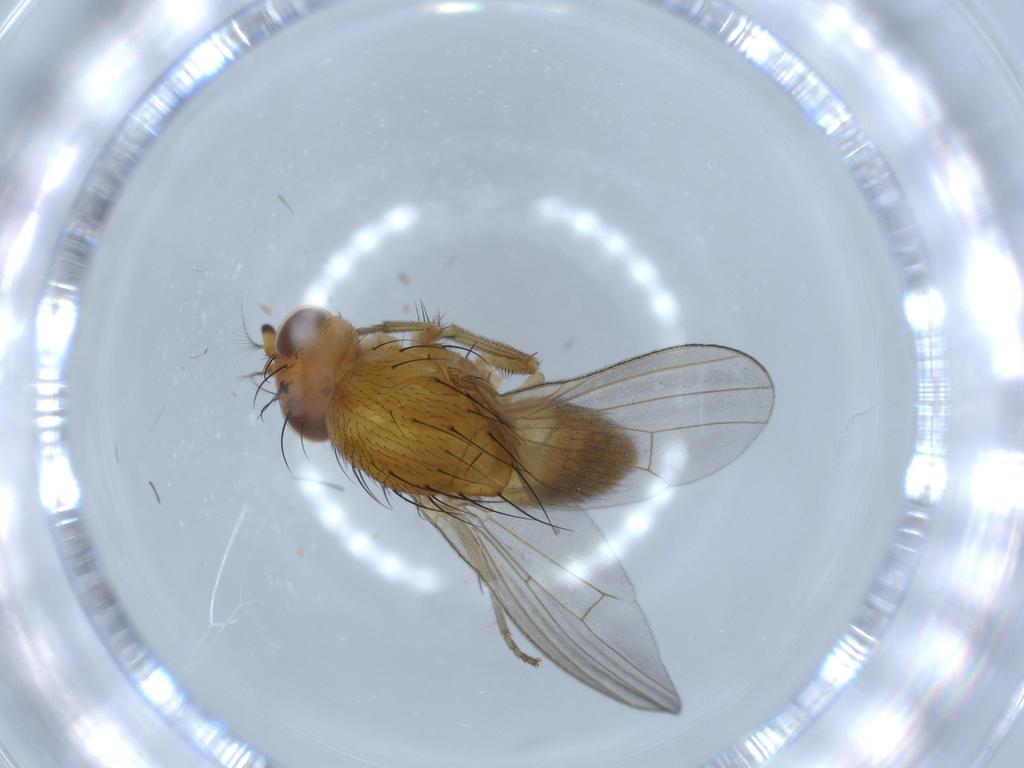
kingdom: Animalia
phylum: Arthropoda
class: Insecta
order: Diptera
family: Lauxaniidae
